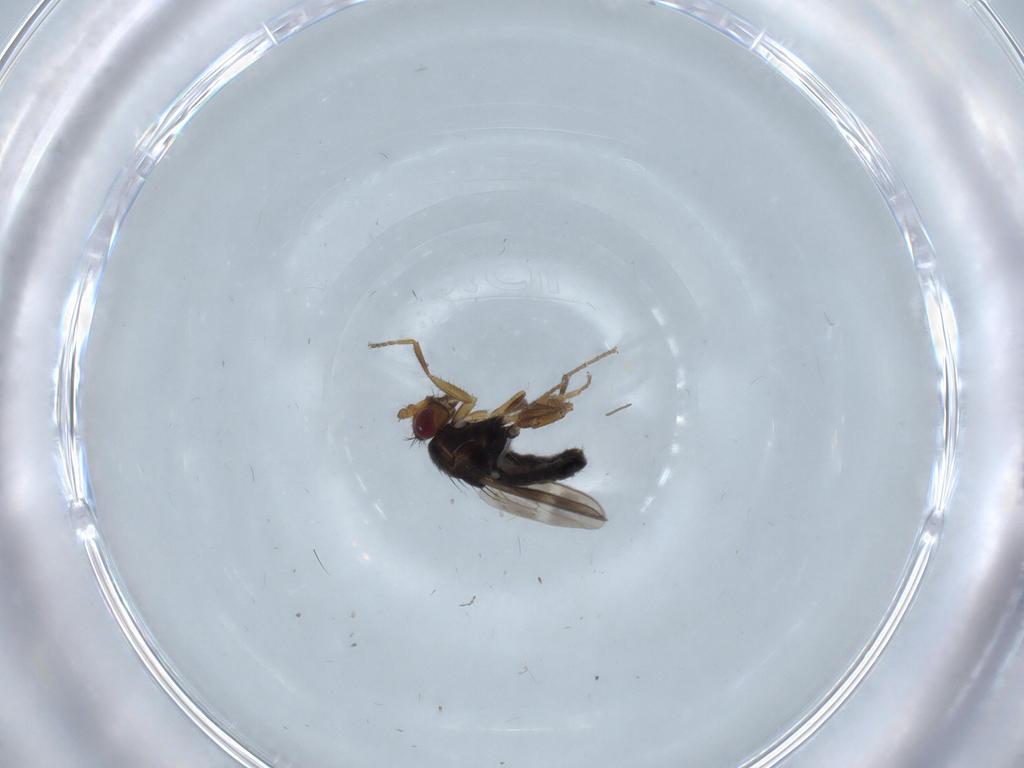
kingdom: Animalia
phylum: Arthropoda
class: Insecta
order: Diptera
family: Sphaeroceridae
